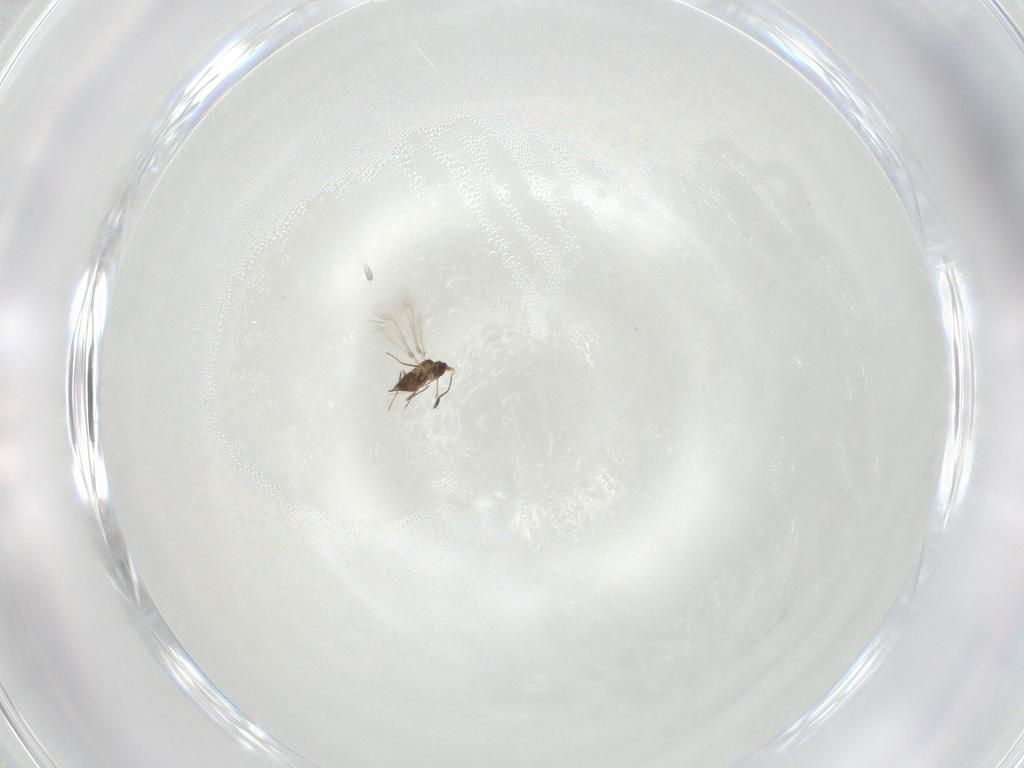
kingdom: Animalia
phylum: Arthropoda
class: Insecta
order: Hymenoptera
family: Mymaridae
